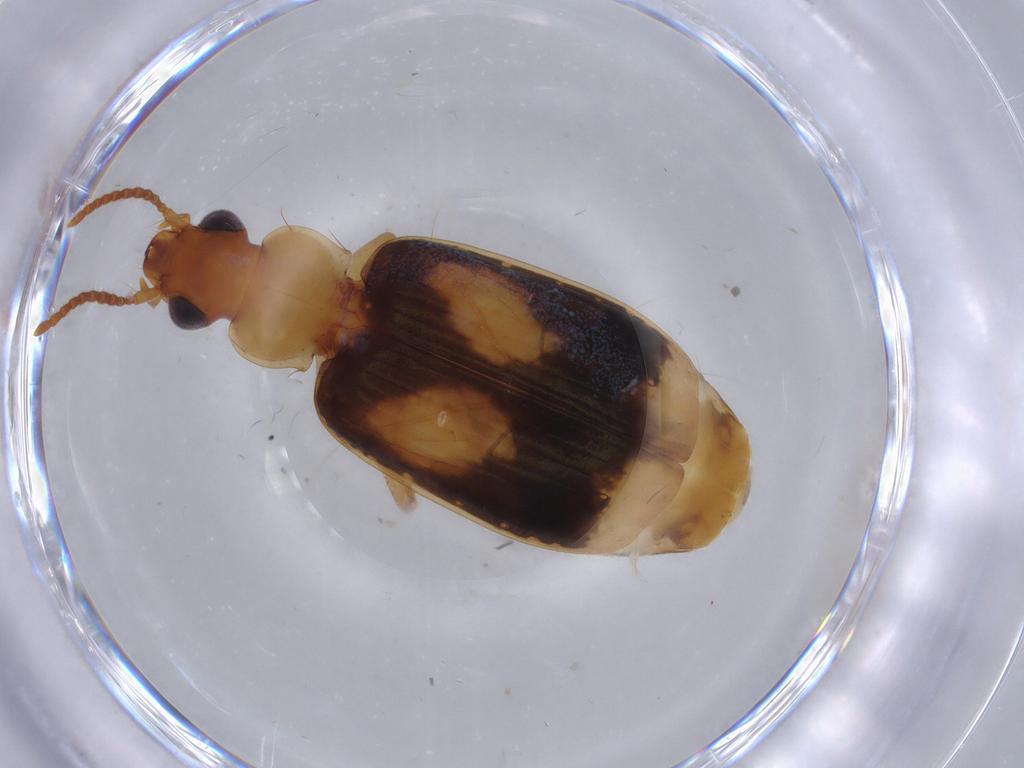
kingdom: Animalia
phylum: Arthropoda
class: Insecta
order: Coleoptera
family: Carabidae
